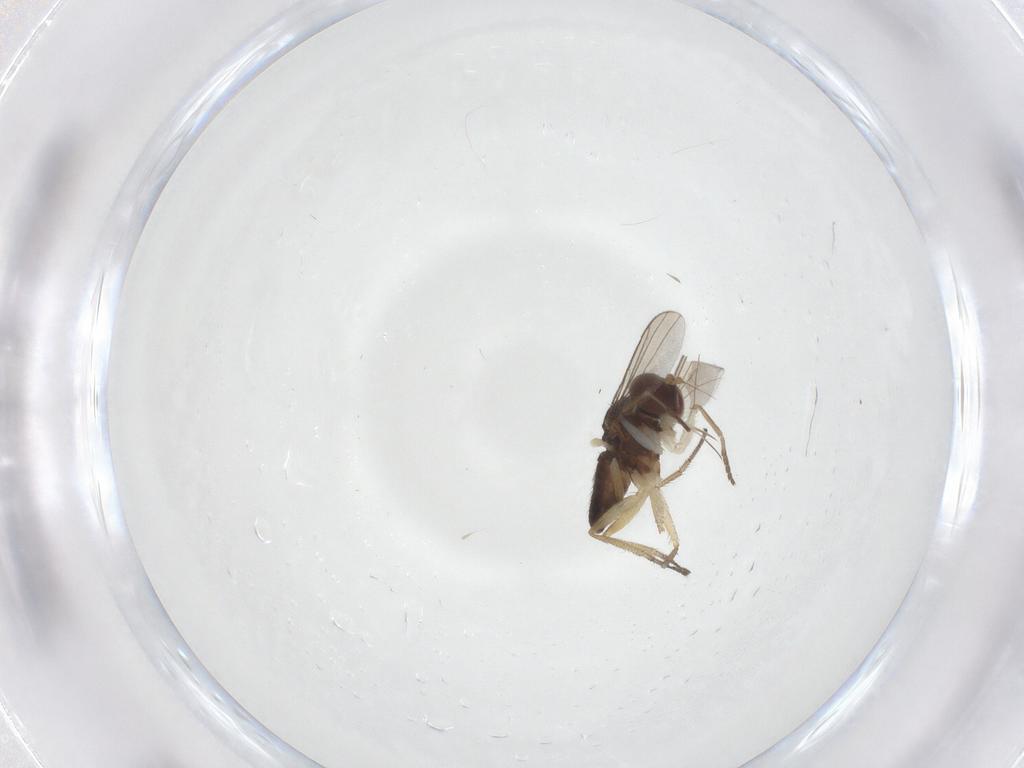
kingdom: Animalia
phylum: Arthropoda
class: Insecta
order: Diptera
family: Dolichopodidae
